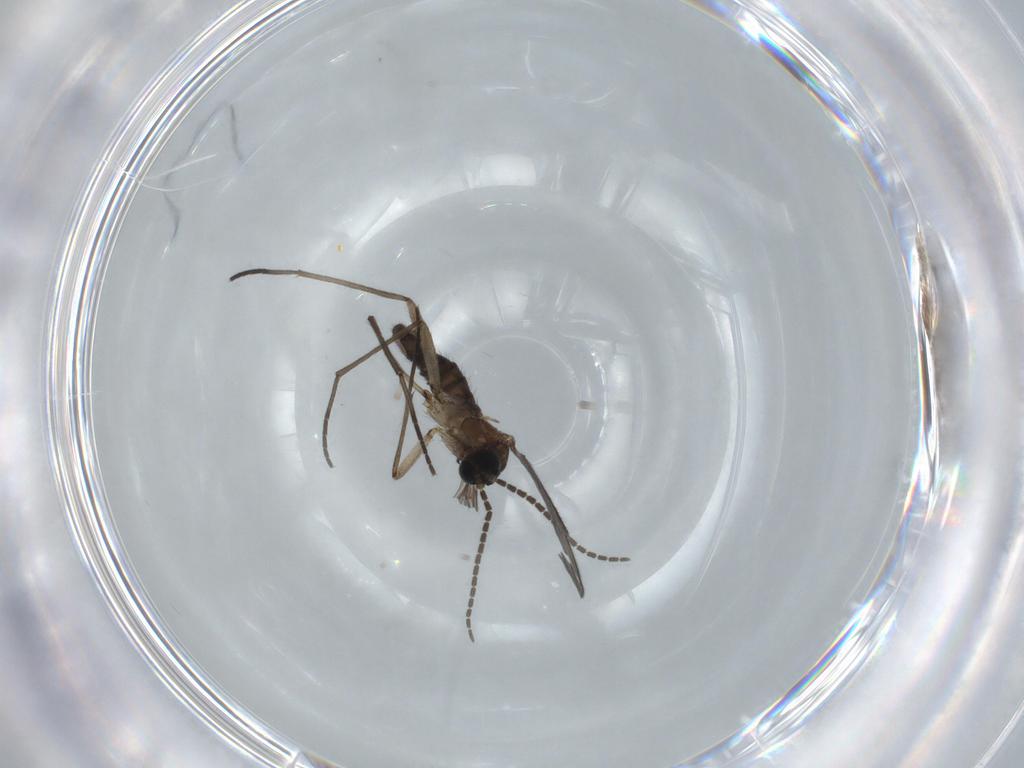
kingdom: Animalia
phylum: Arthropoda
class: Insecta
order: Diptera
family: Sciaridae
